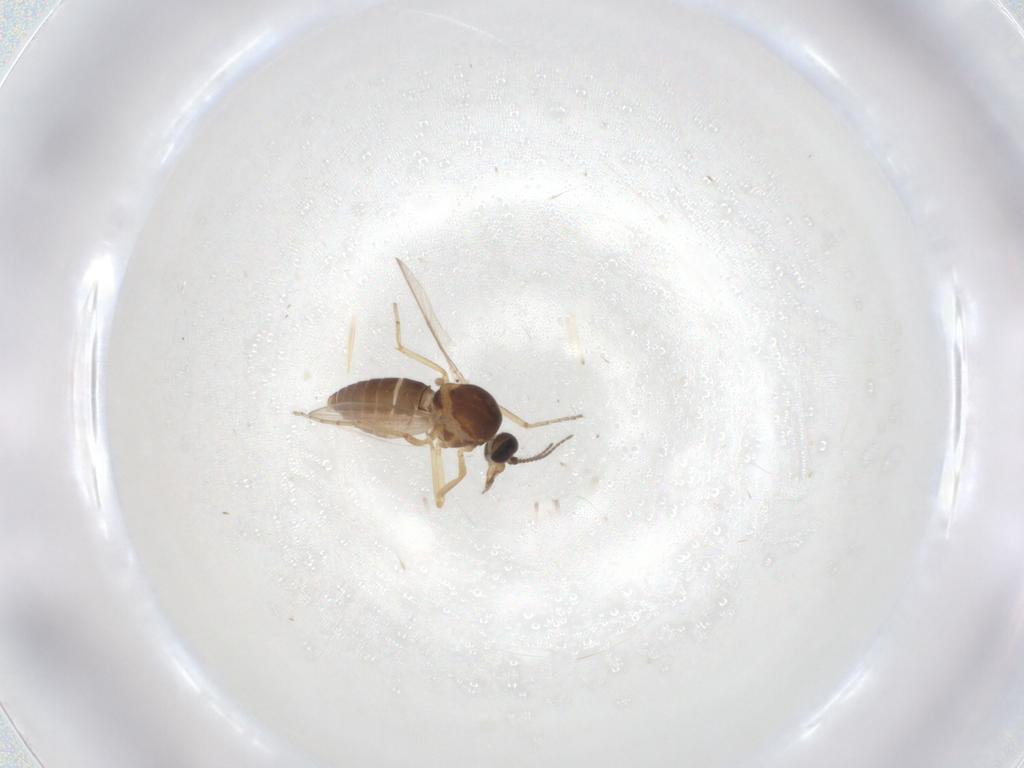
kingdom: Animalia
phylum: Arthropoda
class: Insecta
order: Diptera
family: Ceratopogonidae
